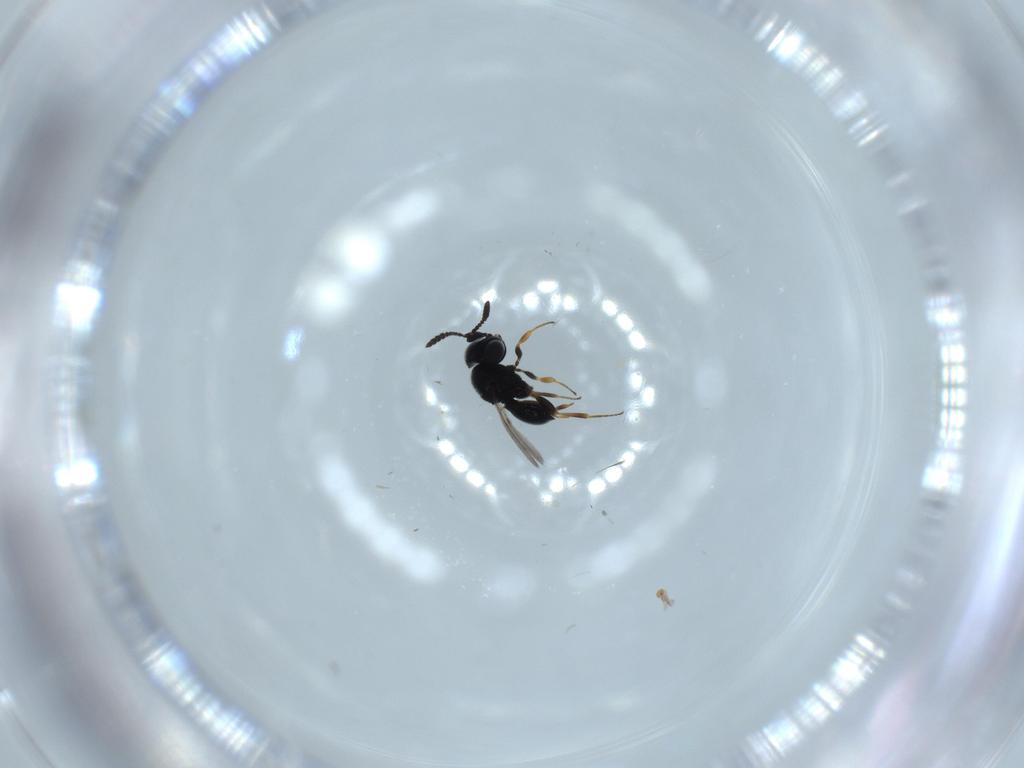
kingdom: Animalia
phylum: Arthropoda
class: Insecta
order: Hymenoptera
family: Scelionidae
